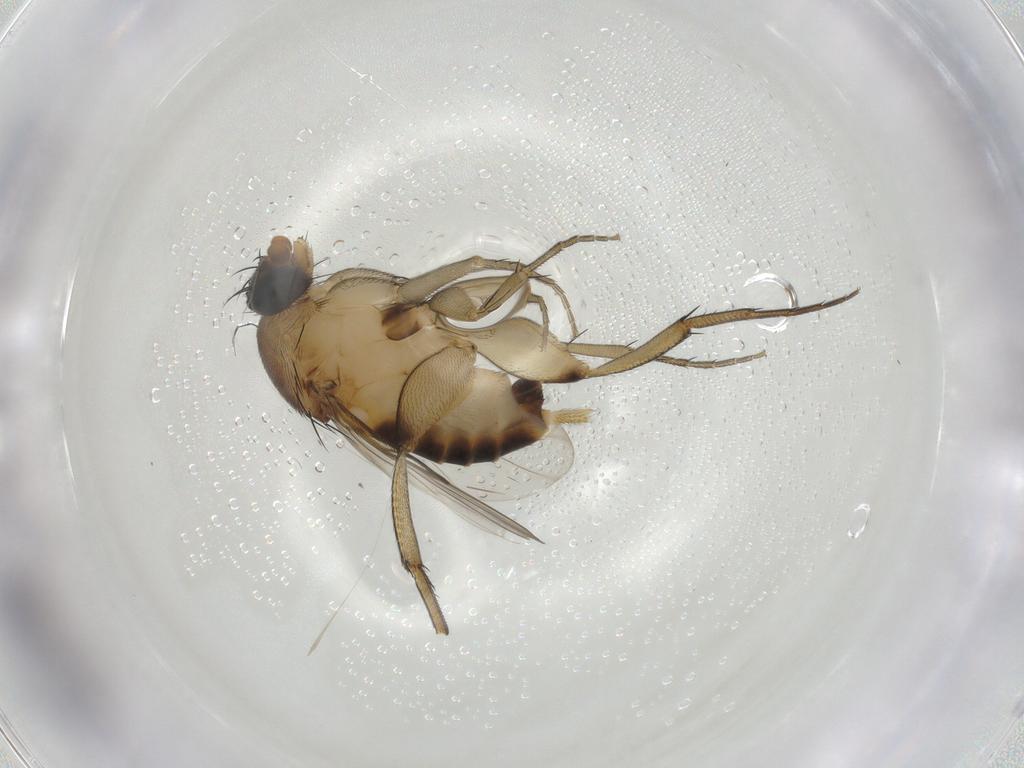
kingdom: Animalia
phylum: Arthropoda
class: Insecta
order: Diptera
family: Phoridae
